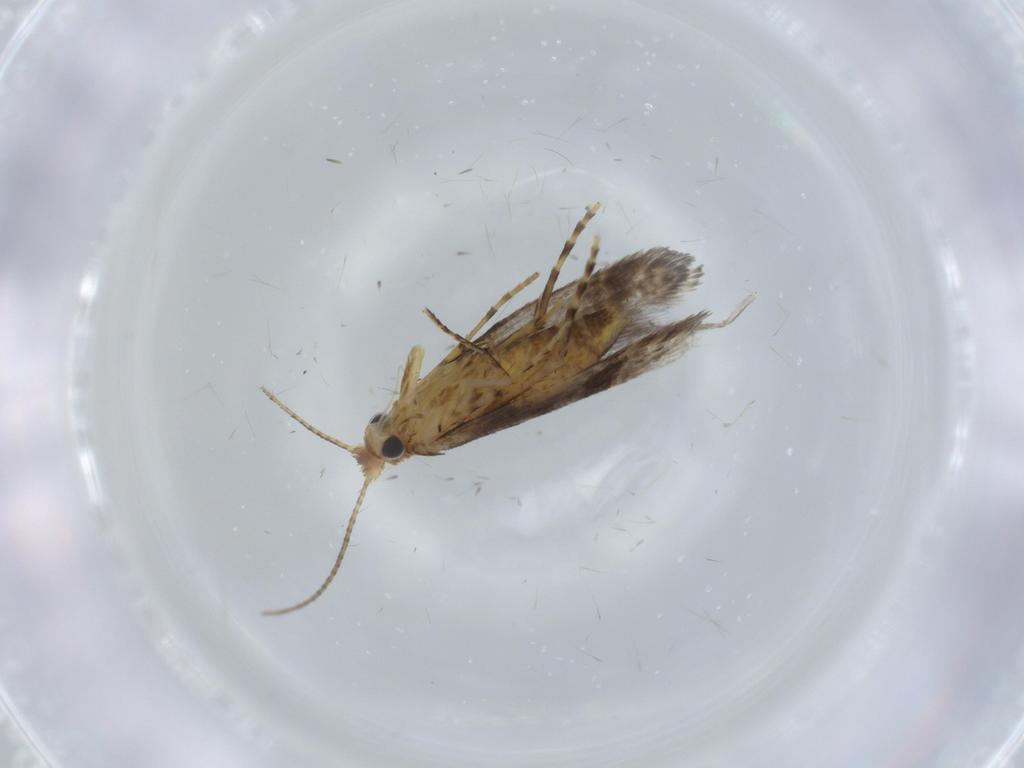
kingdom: Animalia
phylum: Arthropoda
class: Insecta
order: Lepidoptera
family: Argyresthiidae
